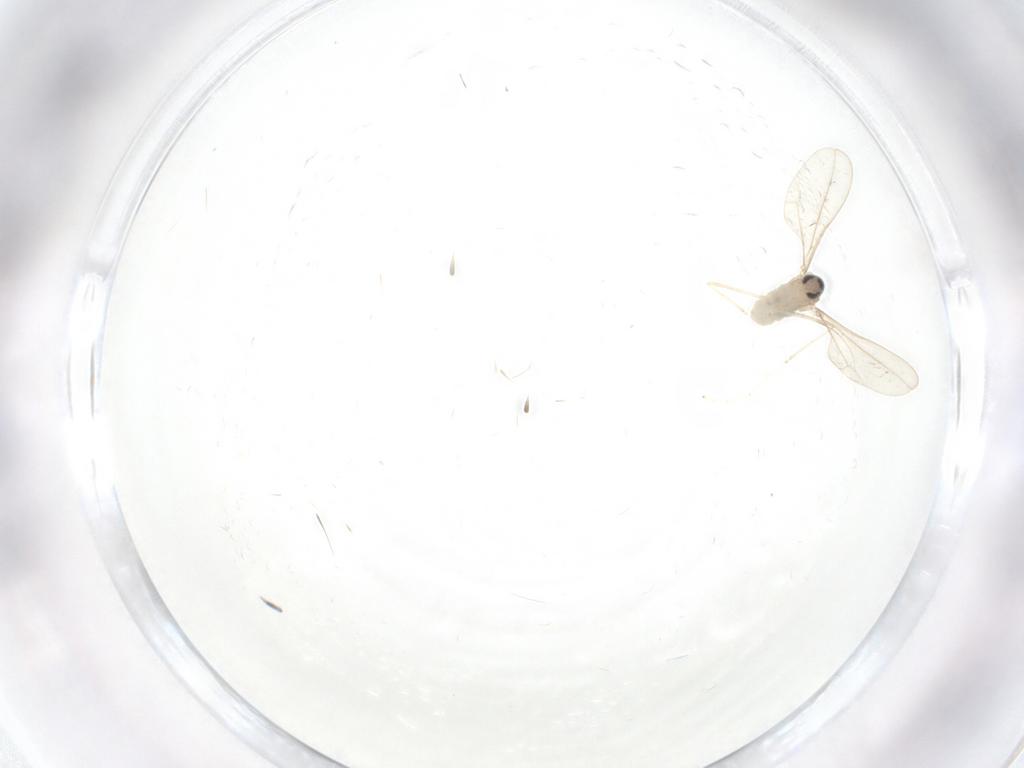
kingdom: Animalia
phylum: Arthropoda
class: Insecta
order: Diptera
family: Cecidomyiidae
